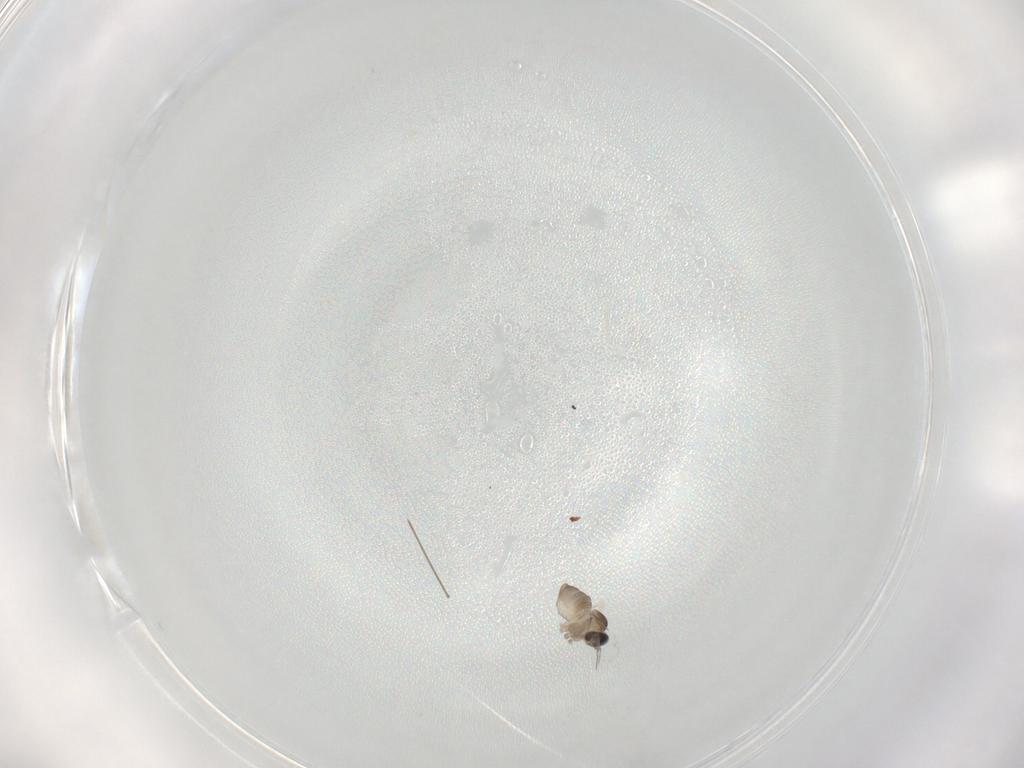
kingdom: Animalia
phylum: Arthropoda
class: Insecta
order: Diptera
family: Cecidomyiidae
